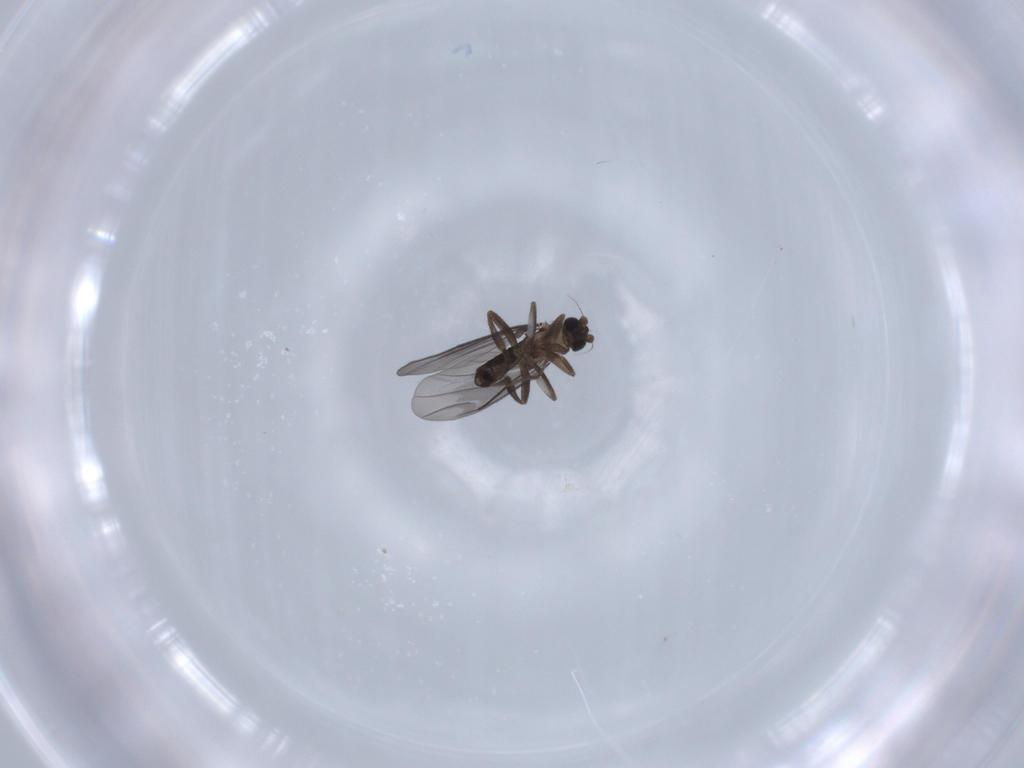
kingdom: Animalia
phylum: Arthropoda
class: Insecta
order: Diptera
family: Phoridae
